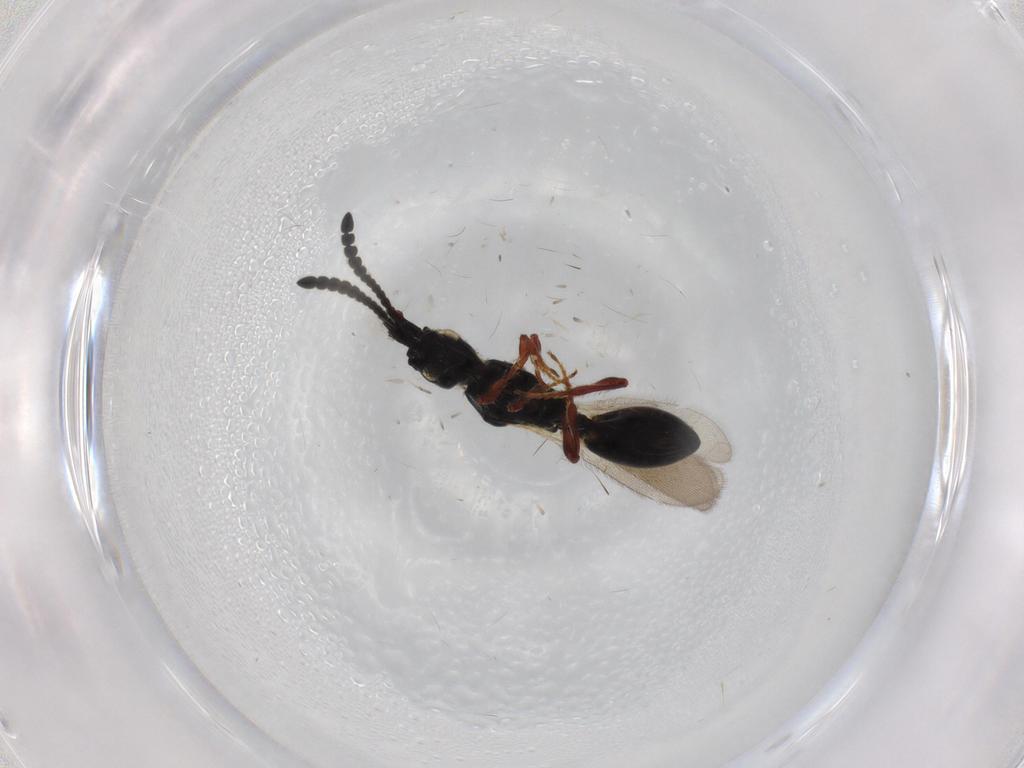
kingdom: Animalia
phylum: Arthropoda
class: Insecta
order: Hymenoptera
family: Diapriidae
